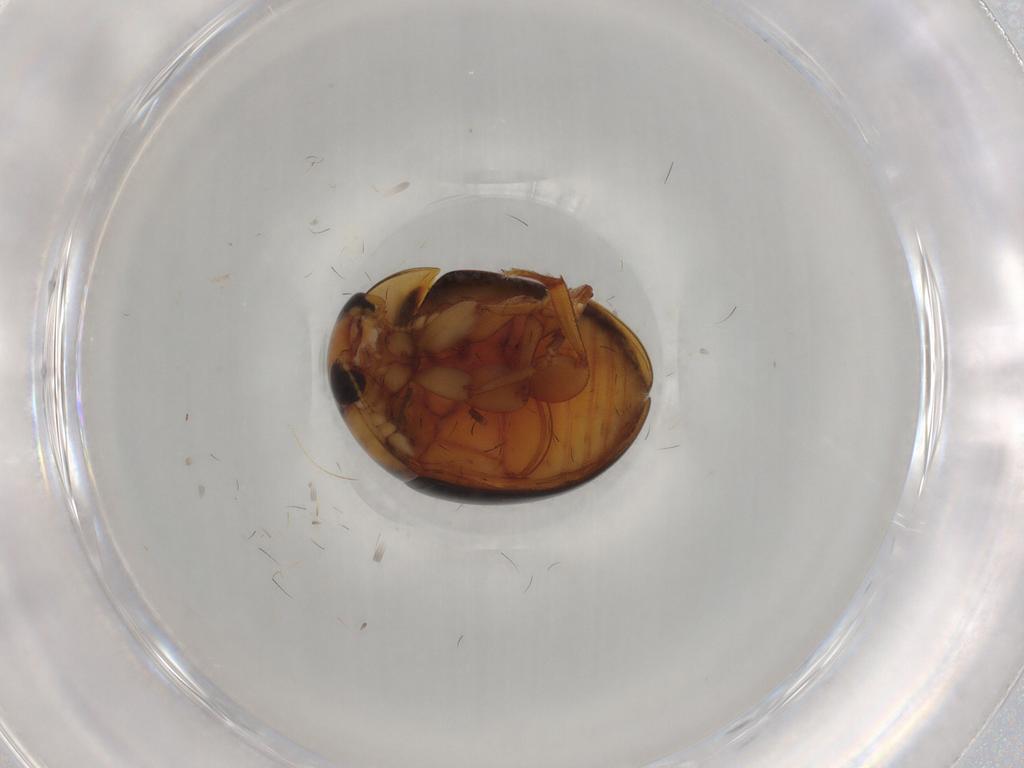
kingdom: Animalia
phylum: Arthropoda
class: Insecta
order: Coleoptera
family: Phalacridae
